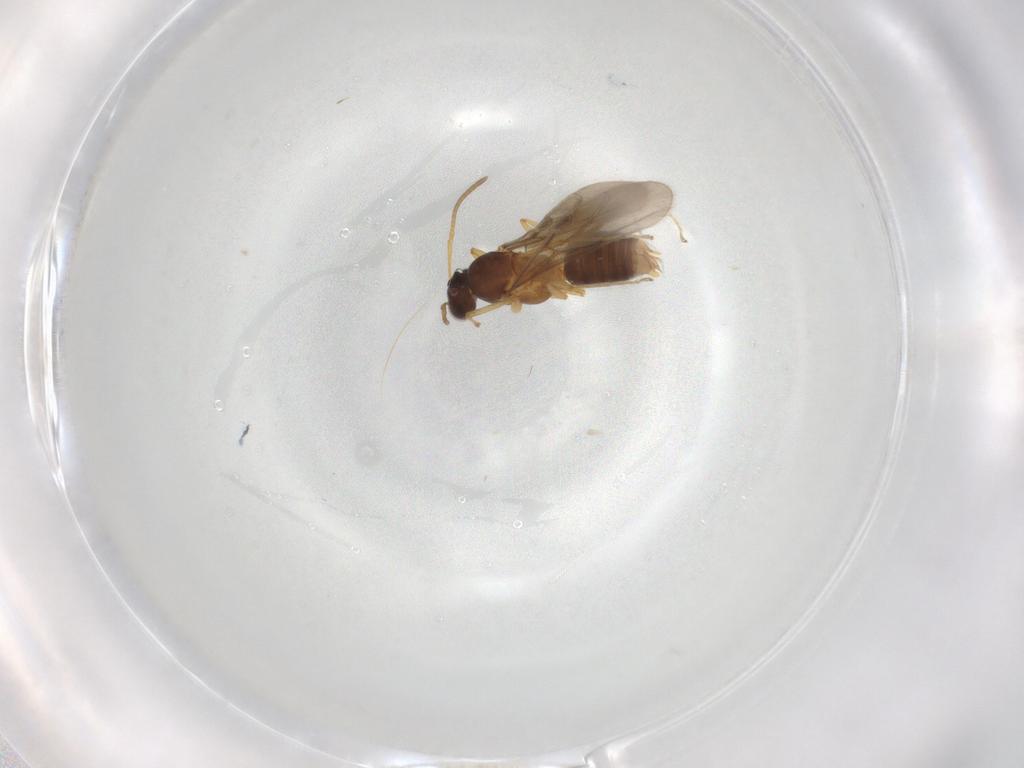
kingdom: Animalia
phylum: Arthropoda
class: Insecta
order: Hymenoptera
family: Formicidae
